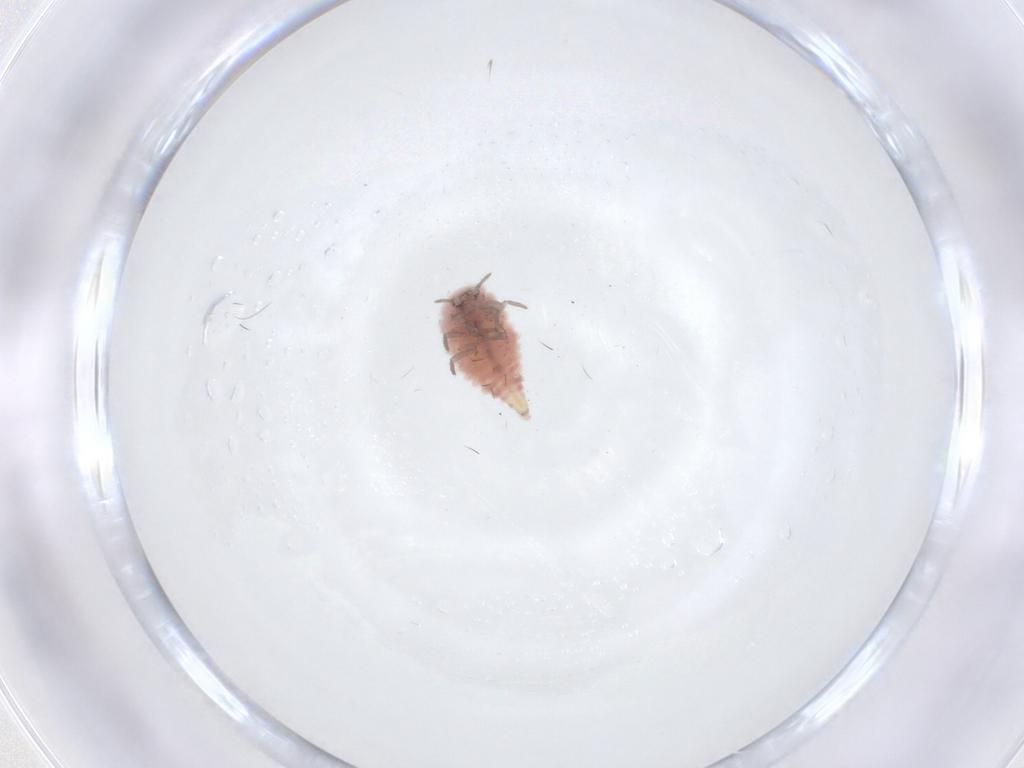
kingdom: Animalia
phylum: Arthropoda
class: Insecta
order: Neuroptera
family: Coniopterygidae
